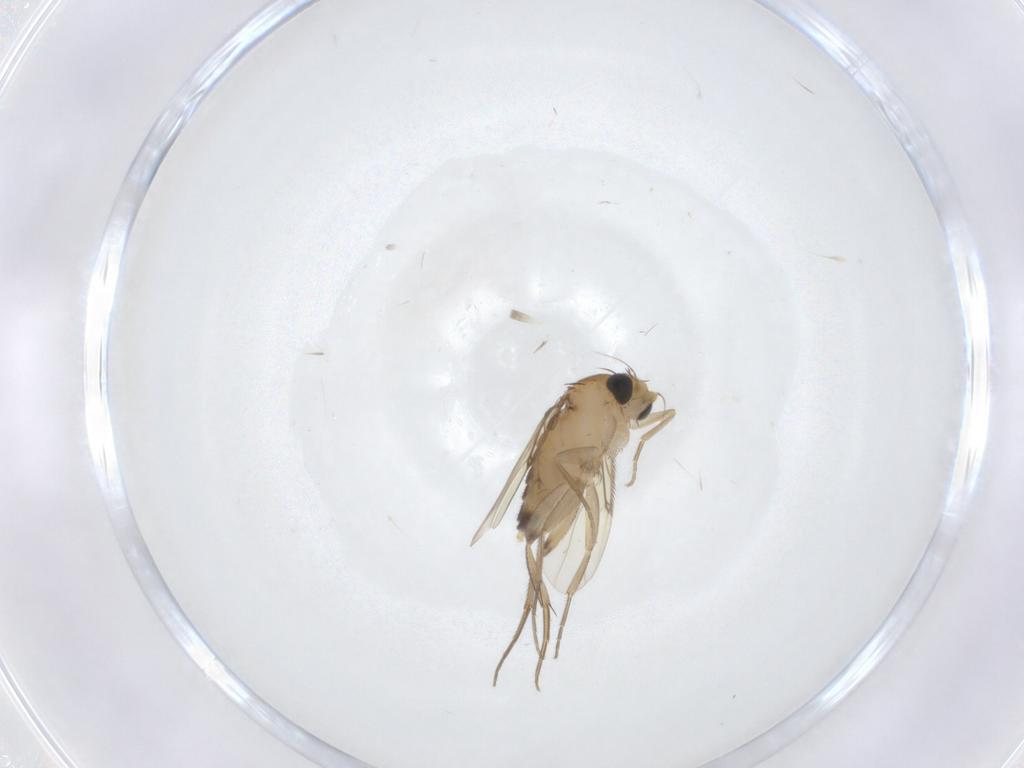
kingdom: Animalia
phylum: Arthropoda
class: Insecta
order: Diptera
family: Phoridae
